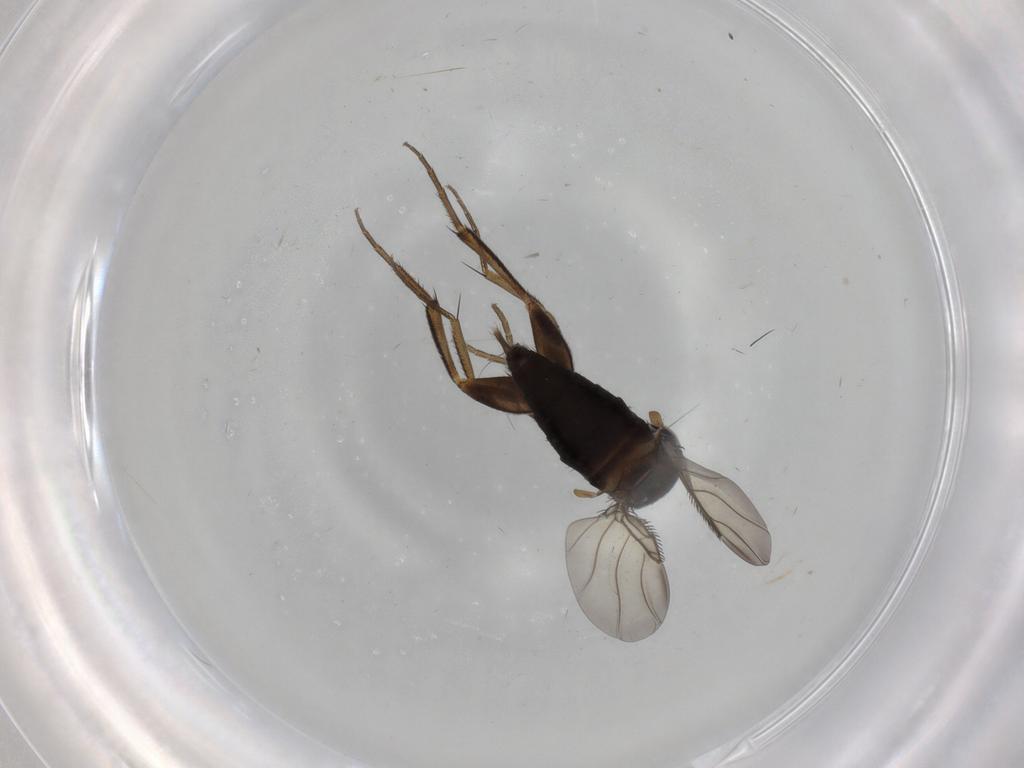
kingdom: Animalia
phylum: Arthropoda
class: Insecta
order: Diptera
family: Phoridae
